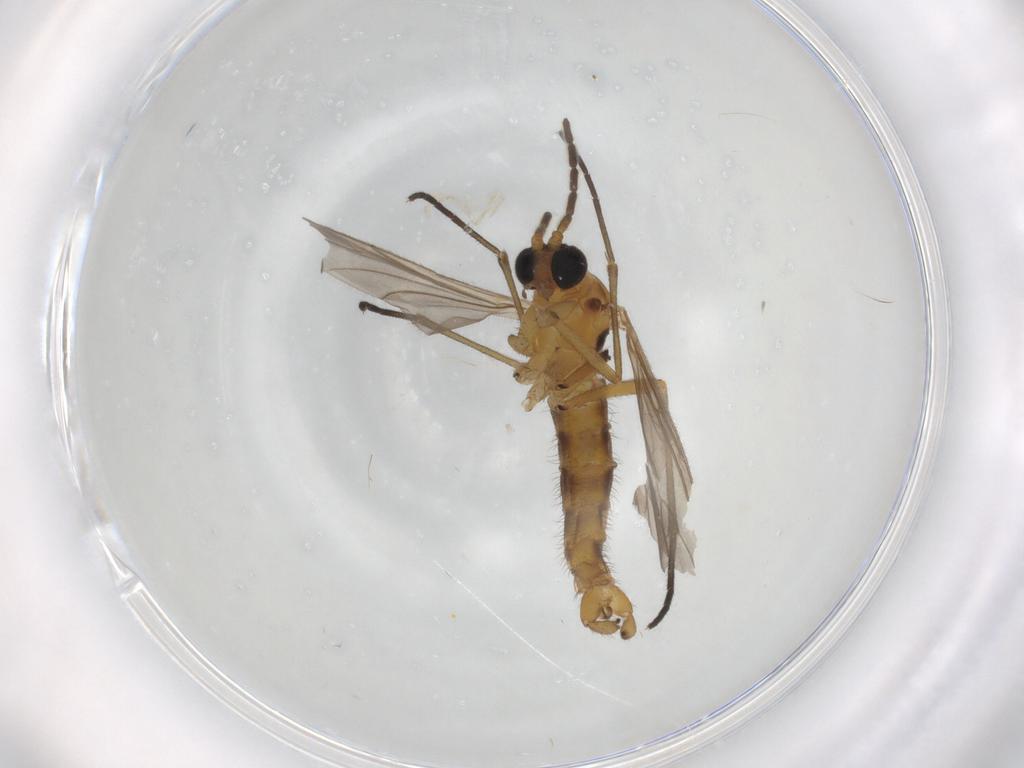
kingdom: Animalia
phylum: Arthropoda
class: Insecta
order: Diptera
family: Sciaridae
